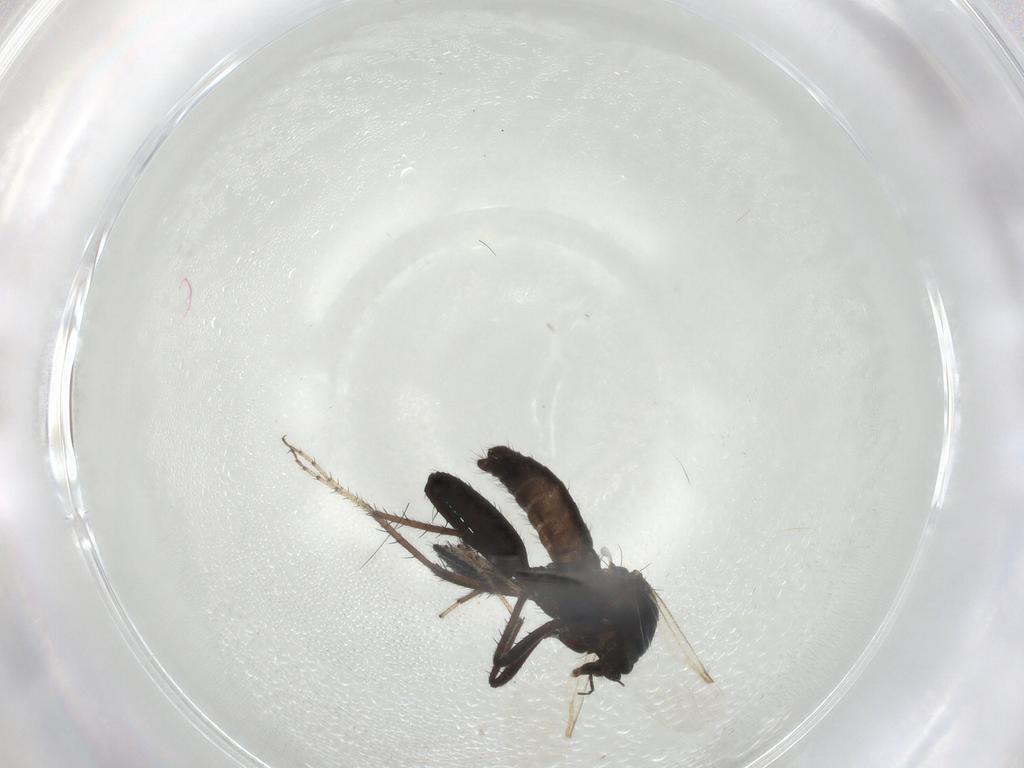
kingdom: Animalia
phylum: Arthropoda
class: Insecta
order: Diptera
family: Ceratopogonidae
